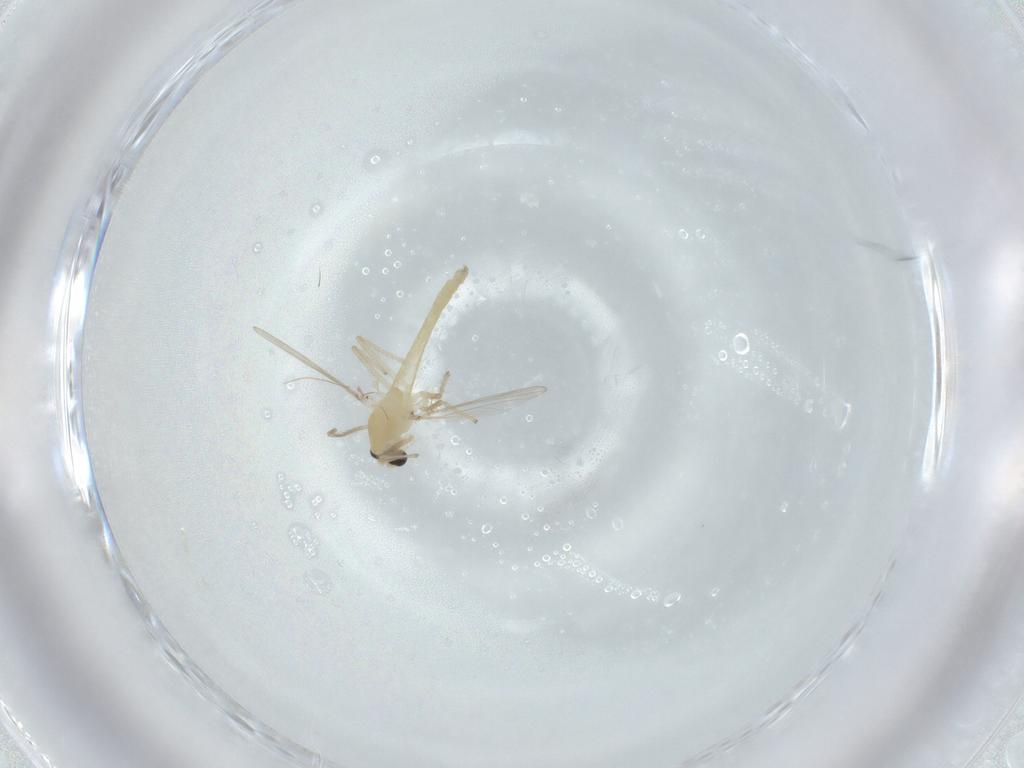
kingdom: Animalia
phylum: Arthropoda
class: Insecta
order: Diptera
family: Chironomidae
